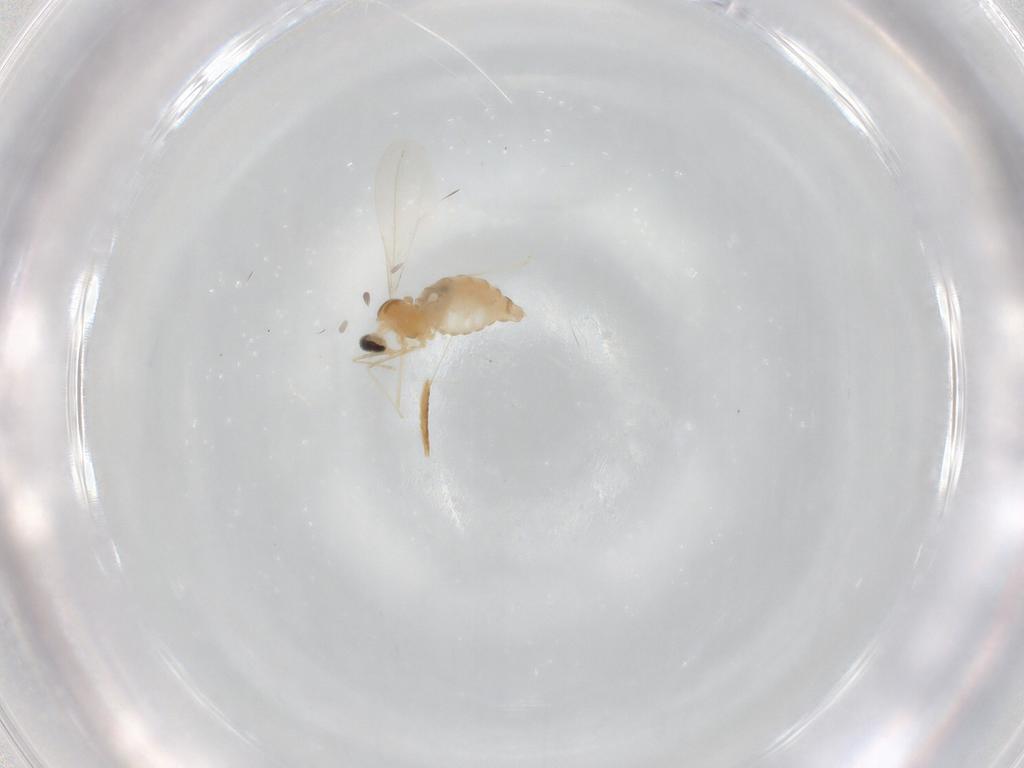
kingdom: Animalia
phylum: Arthropoda
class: Insecta
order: Diptera
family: Cecidomyiidae
